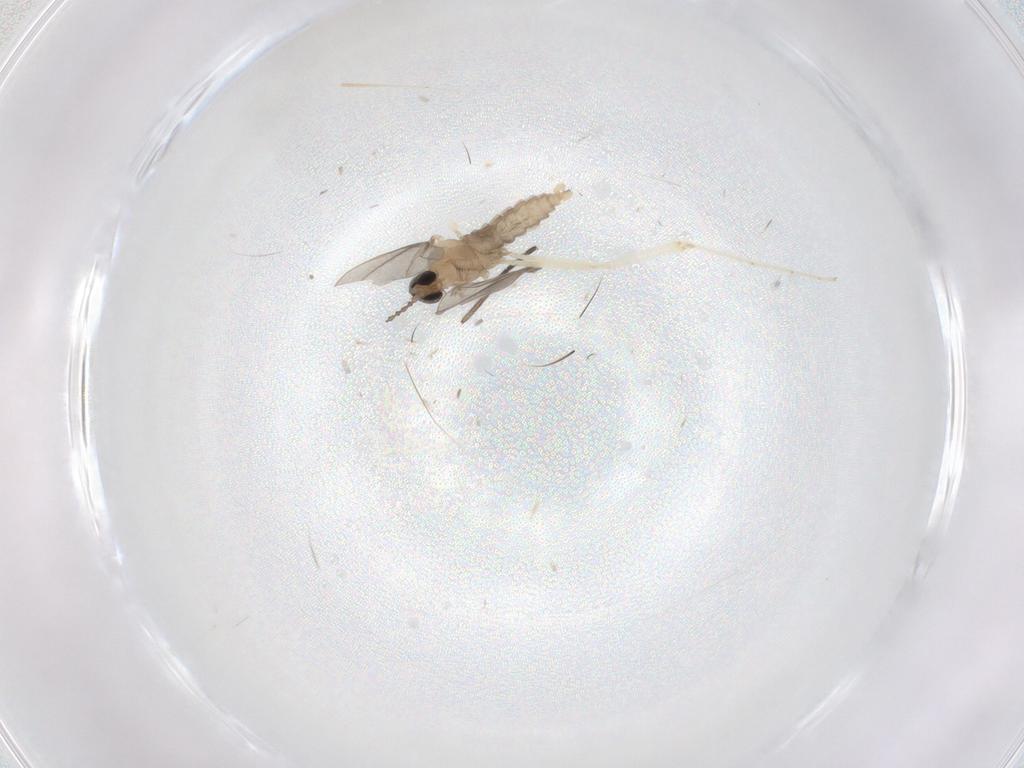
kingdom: Animalia
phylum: Arthropoda
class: Insecta
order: Diptera
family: Cecidomyiidae
